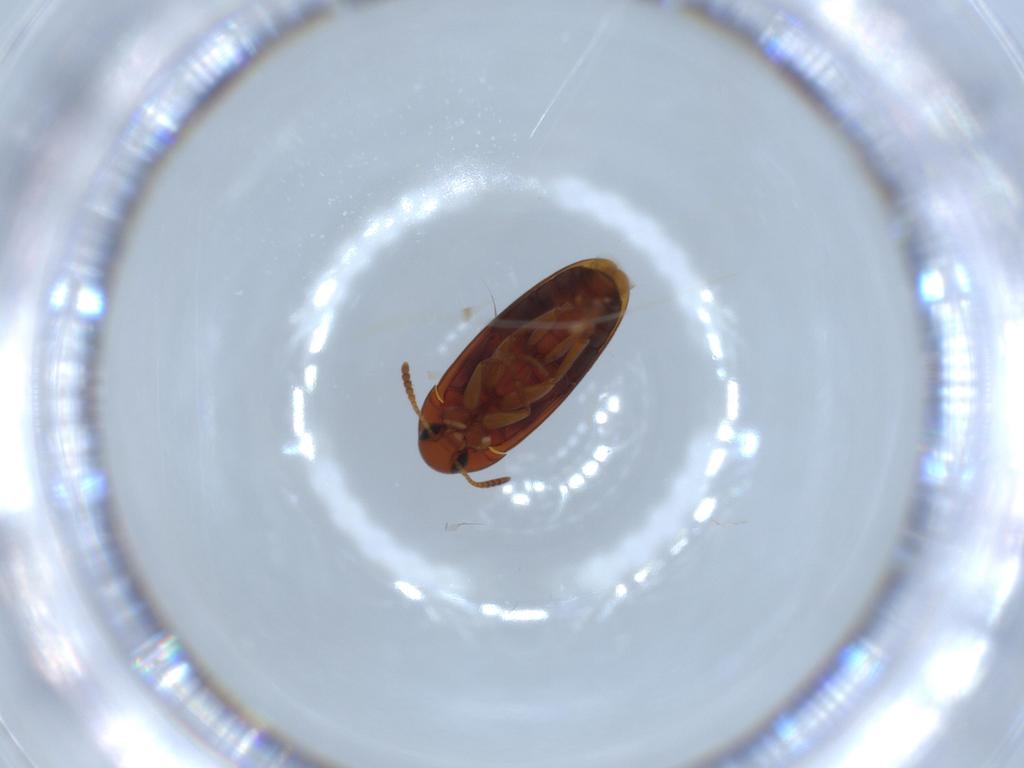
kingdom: Animalia
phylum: Arthropoda
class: Insecta
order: Coleoptera
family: Scraptiidae
